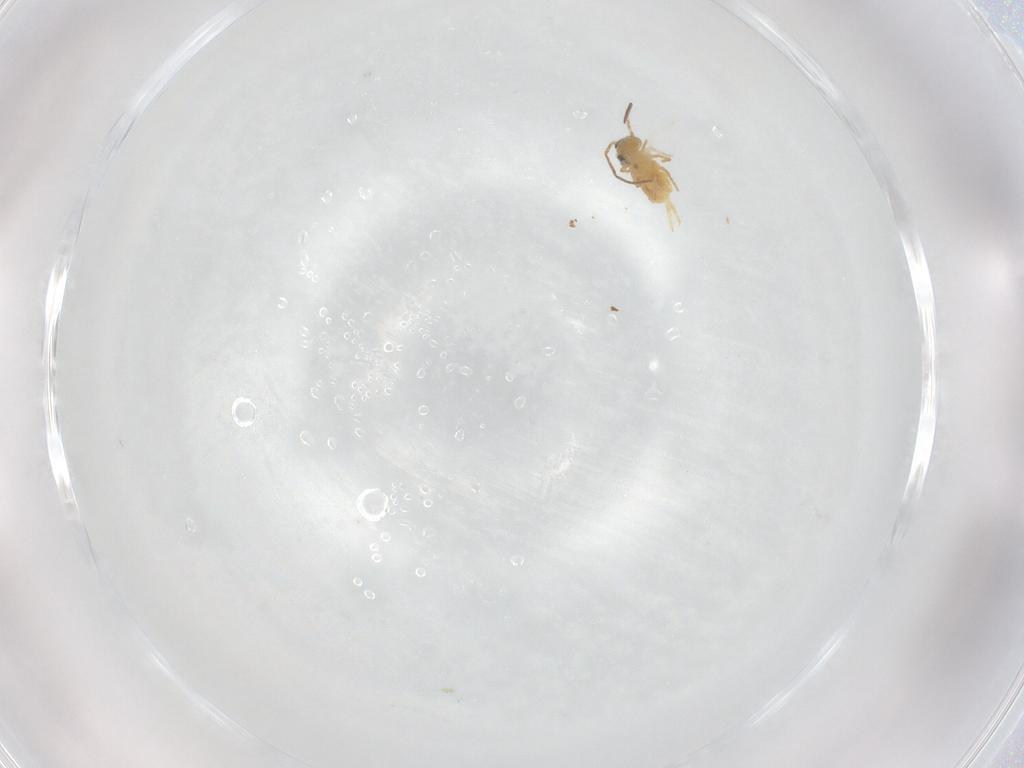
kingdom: Animalia
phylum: Arthropoda
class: Collembola
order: Symphypleona
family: Bourletiellidae
